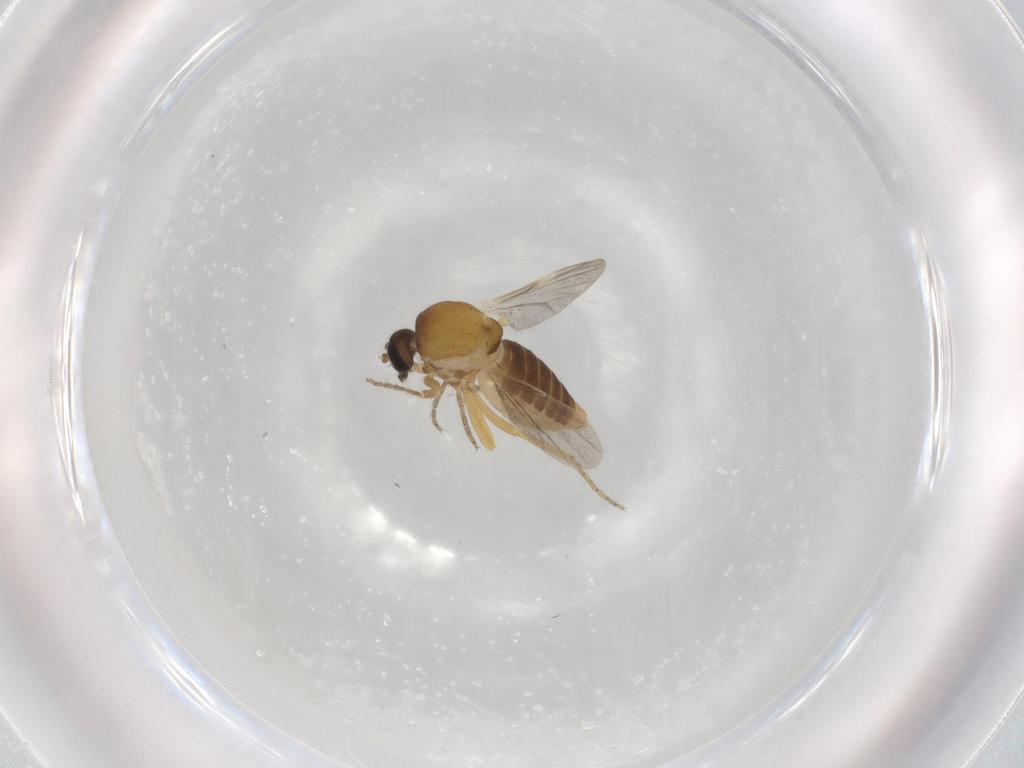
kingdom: Animalia
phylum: Arthropoda
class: Insecta
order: Diptera
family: Ceratopogonidae
